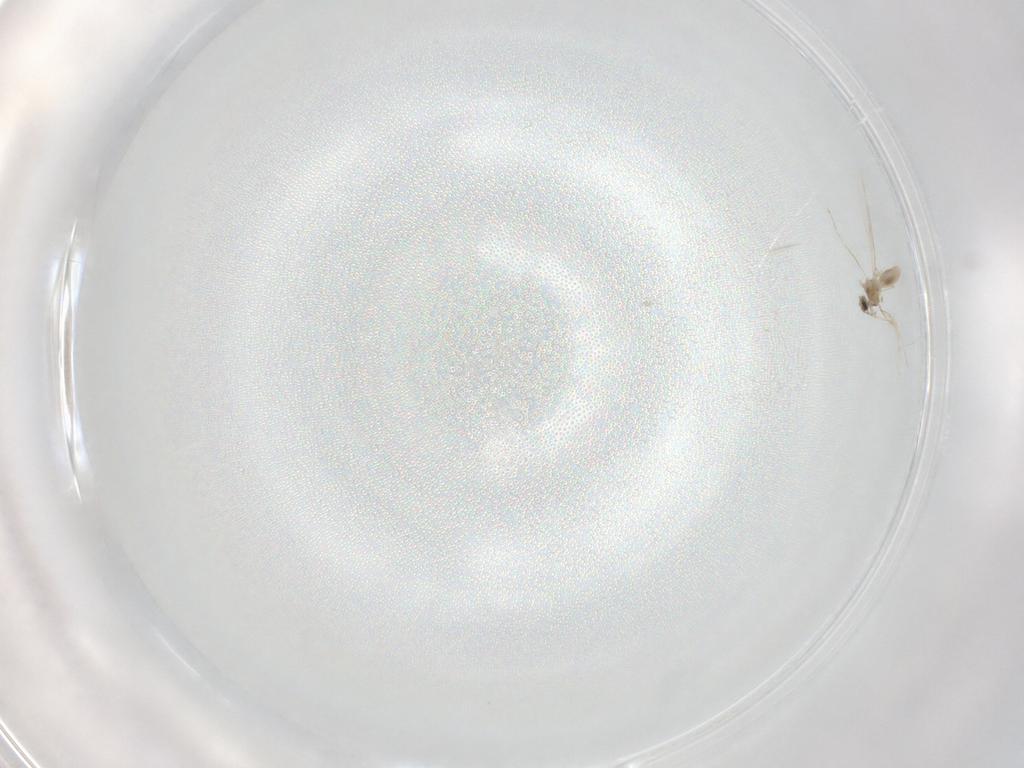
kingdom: Animalia
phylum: Arthropoda
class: Insecta
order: Diptera
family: Cecidomyiidae
